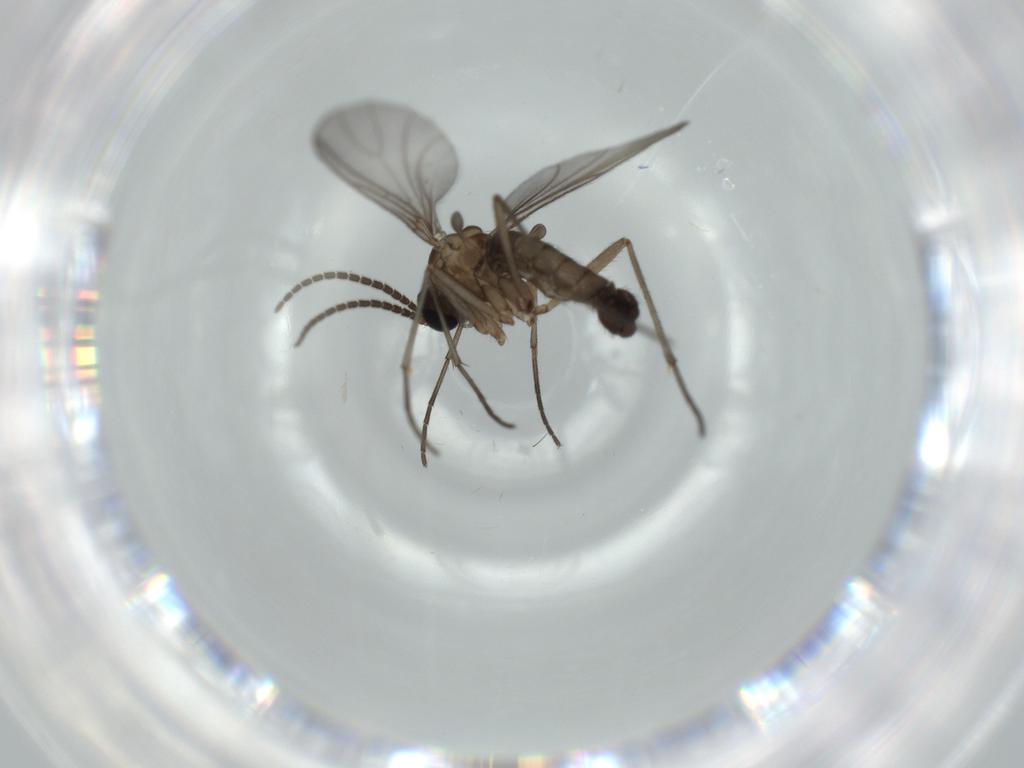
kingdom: Animalia
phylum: Arthropoda
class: Insecta
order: Diptera
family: Sciaridae
